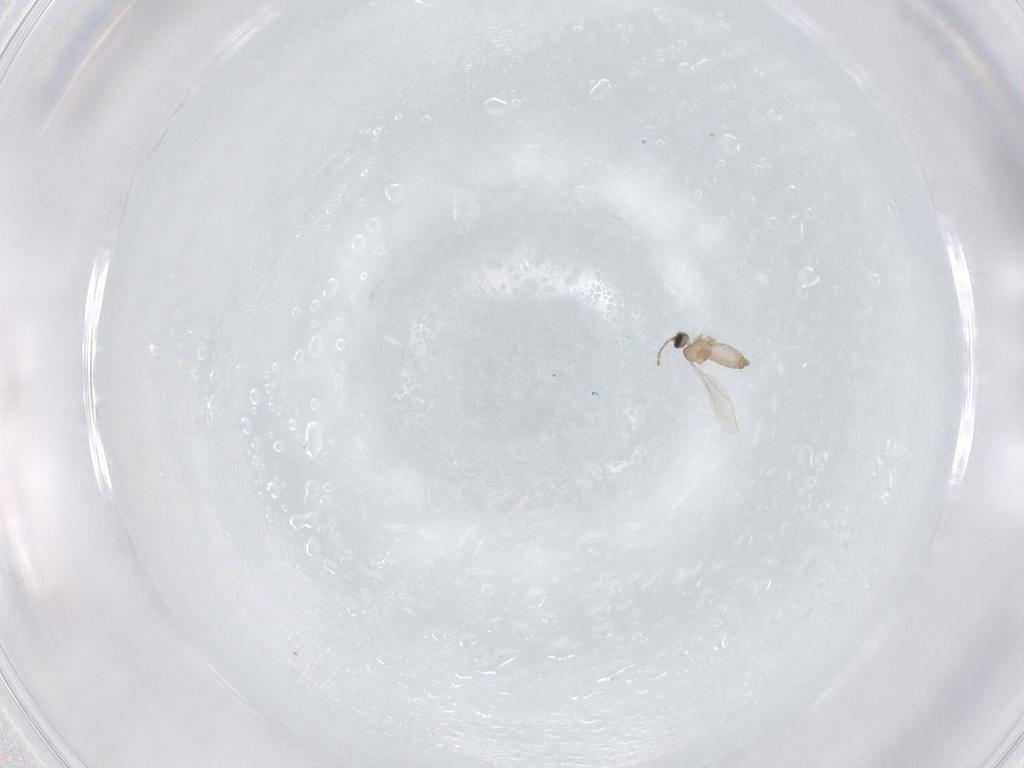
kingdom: Animalia
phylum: Arthropoda
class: Insecta
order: Diptera
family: Cecidomyiidae
